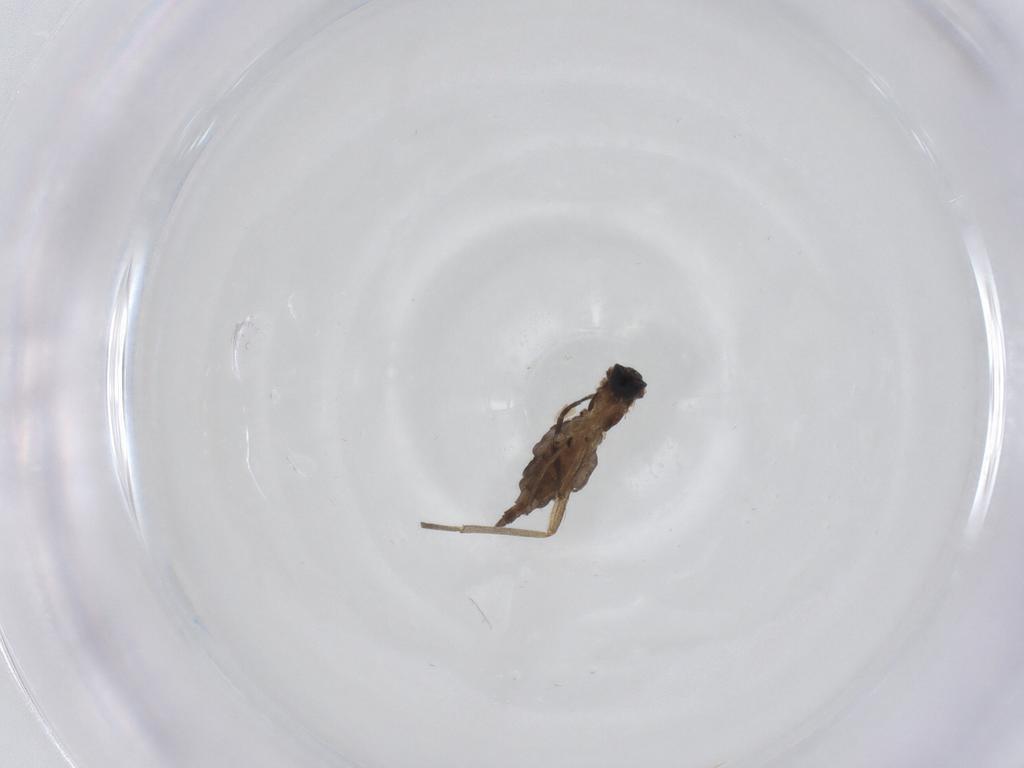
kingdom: Animalia
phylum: Arthropoda
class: Insecta
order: Diptera
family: Sciaridae
